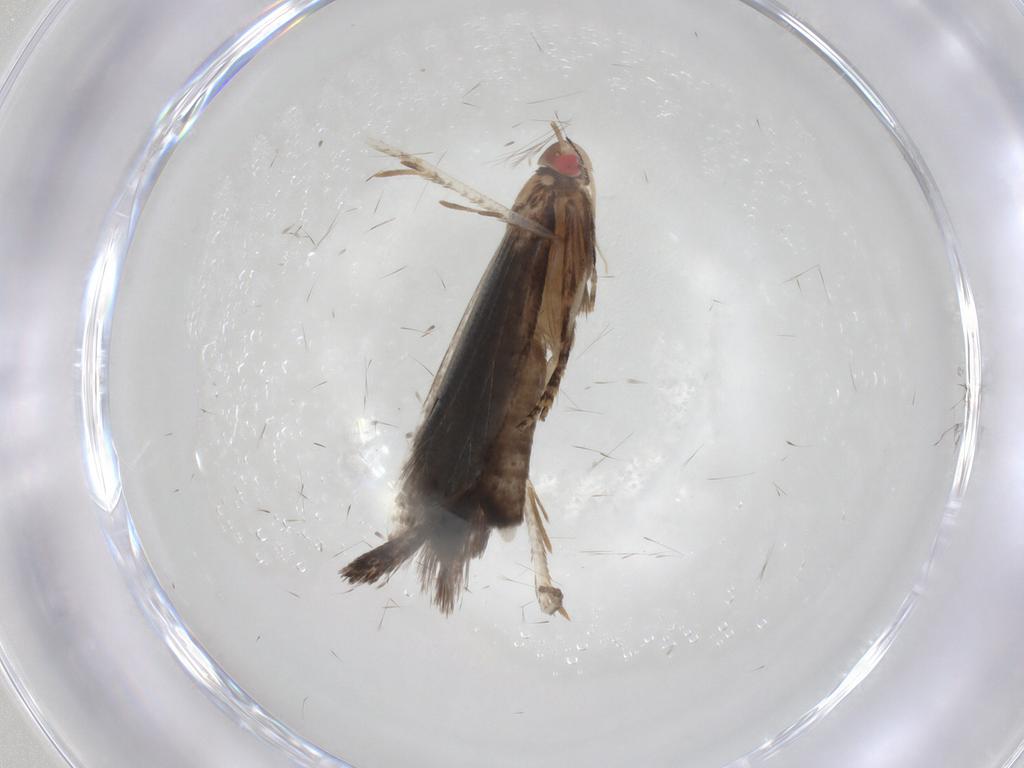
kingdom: Animalia
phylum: Arthropoda
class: Insecta
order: Lepidoptera
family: Gelechiidae
